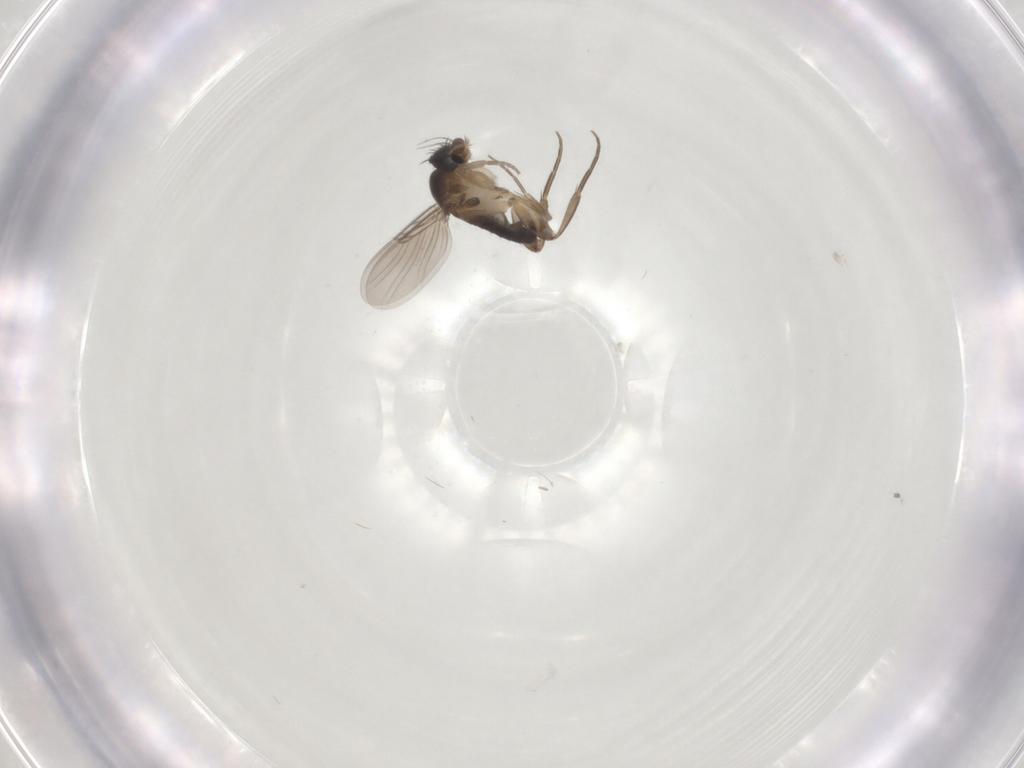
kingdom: Animalia
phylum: Arthropoda
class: Insecta
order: Diptera
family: Phoridae
